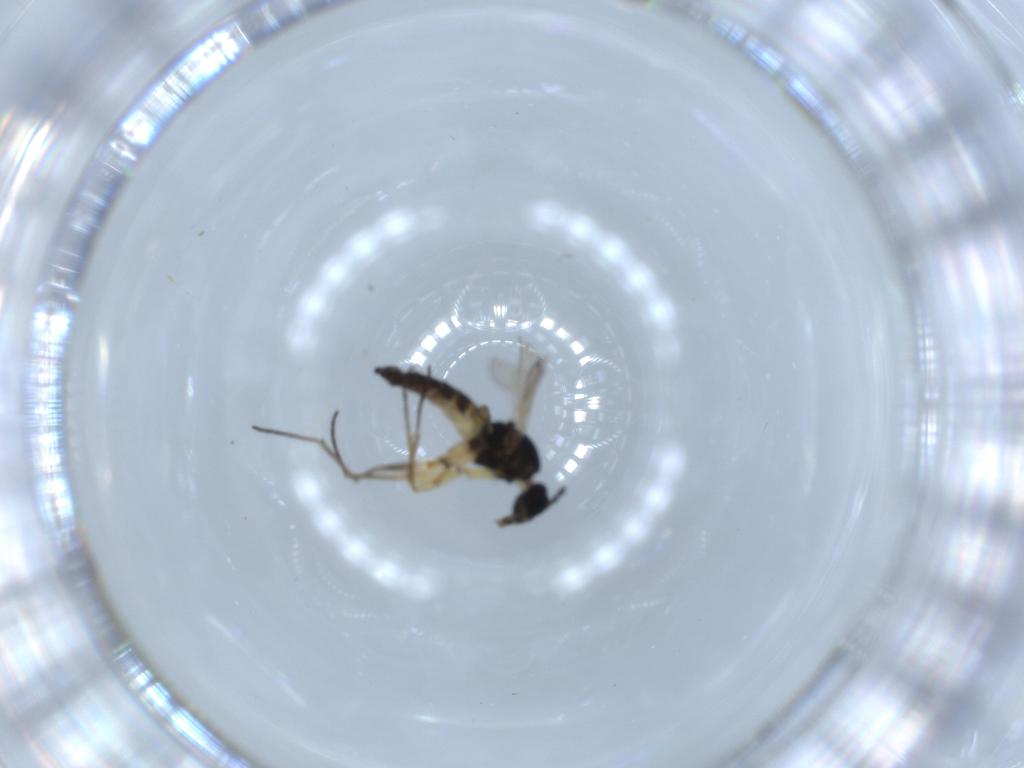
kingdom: Animalia
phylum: Arthropoda
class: Insecta
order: Diptera
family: Sciaridae
